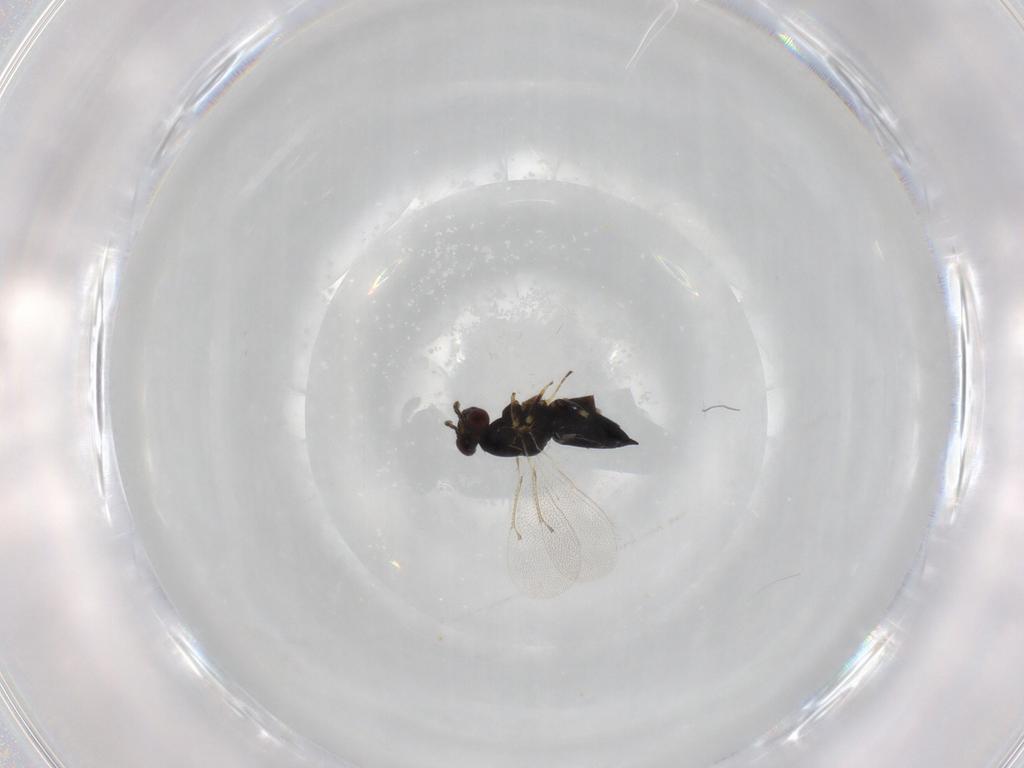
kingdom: Animalia
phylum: Arthropoda
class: Insecta
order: Hymenoptera
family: Eulophidae
